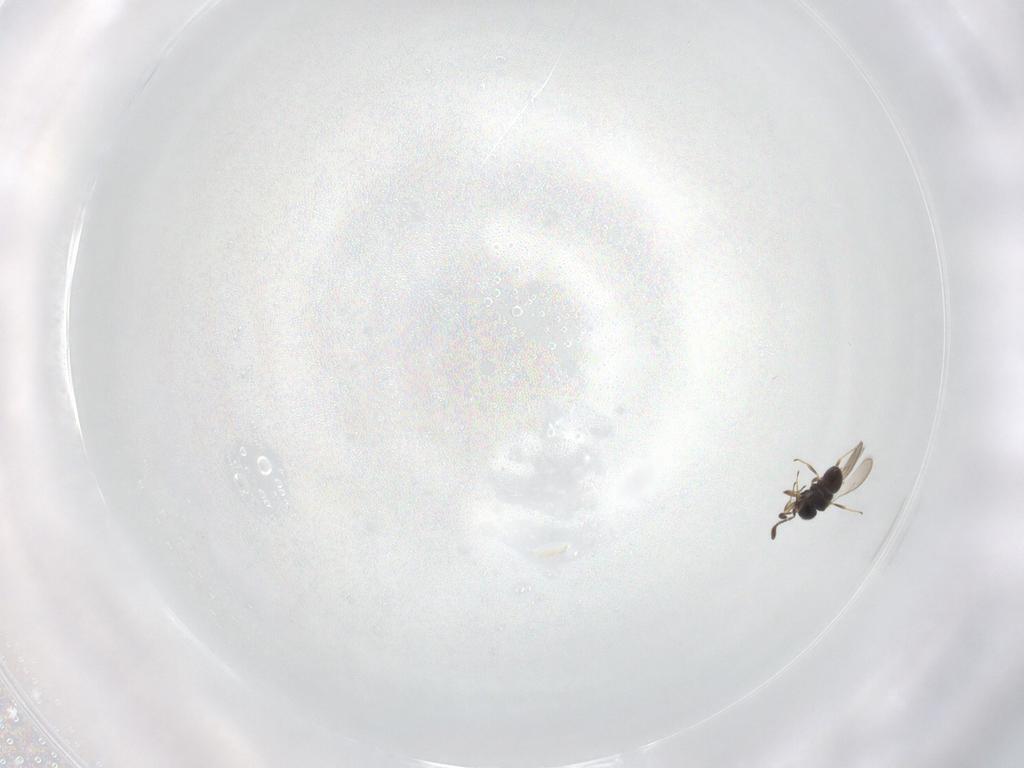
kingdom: Animalia
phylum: Arthropoda
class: Insecta
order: Hymenoptera
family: Scelionidae
